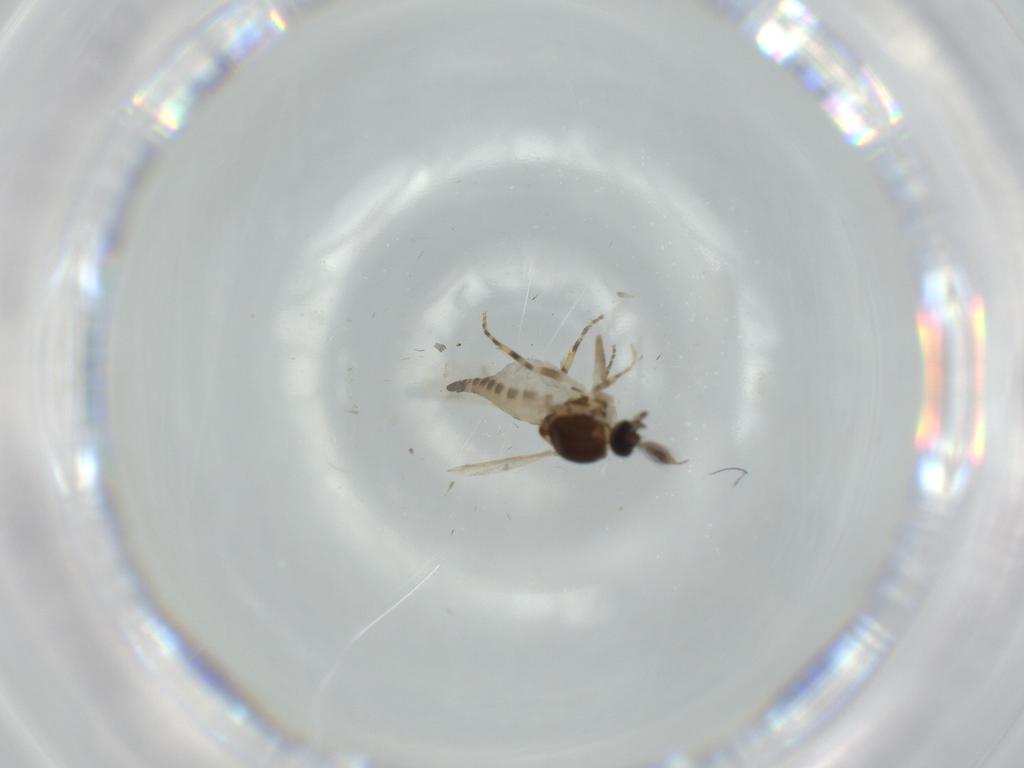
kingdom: Animalia
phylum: Arthropoda
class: Insecta
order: Diptera
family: Ceratopogonidae
